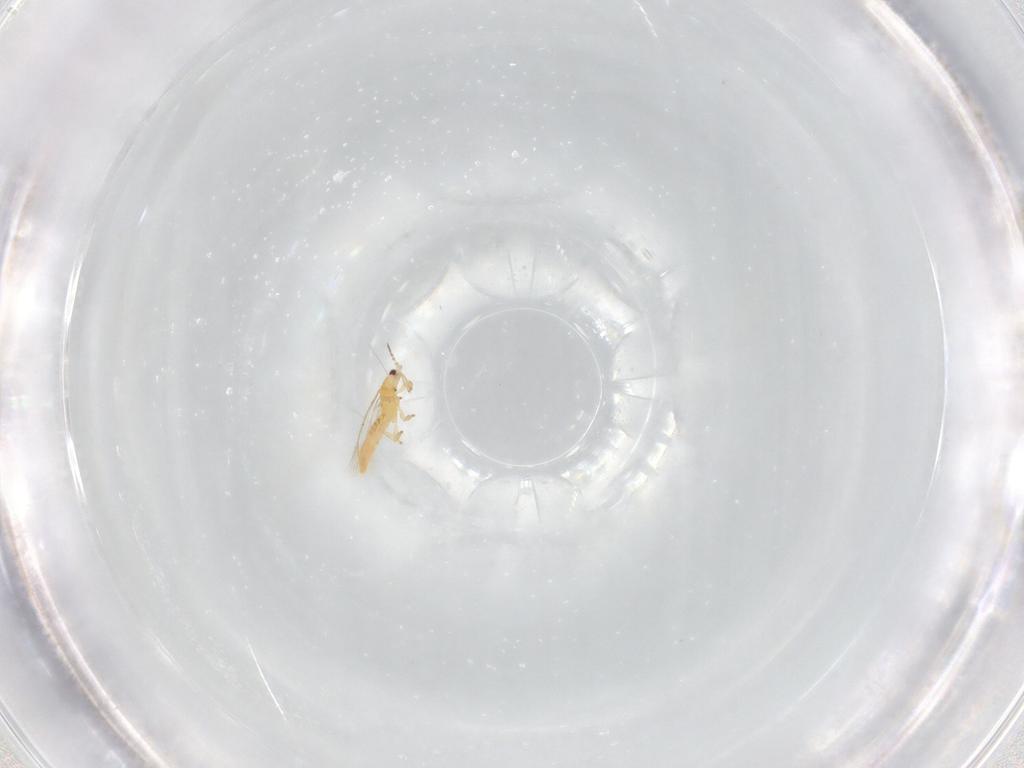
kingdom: Animalia
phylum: Arthropoda
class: Insecta
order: Thysanoptera
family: Thripidae
